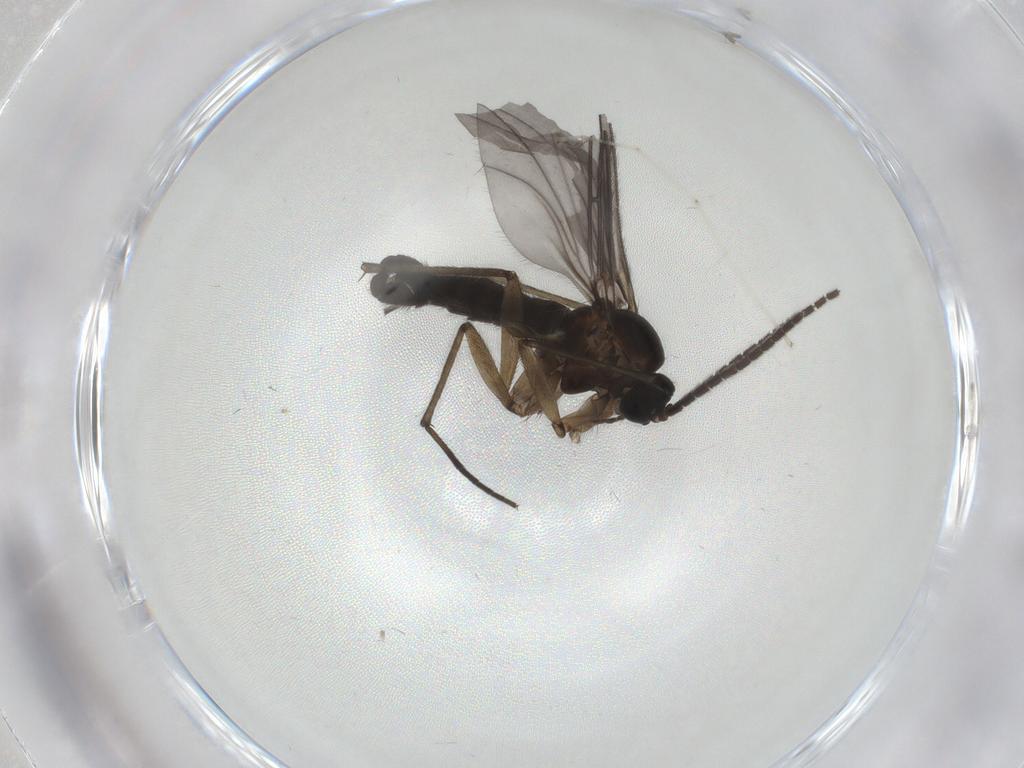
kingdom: Animalia
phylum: Arthropoda
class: Insecta
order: Diptera
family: Sciaridae
